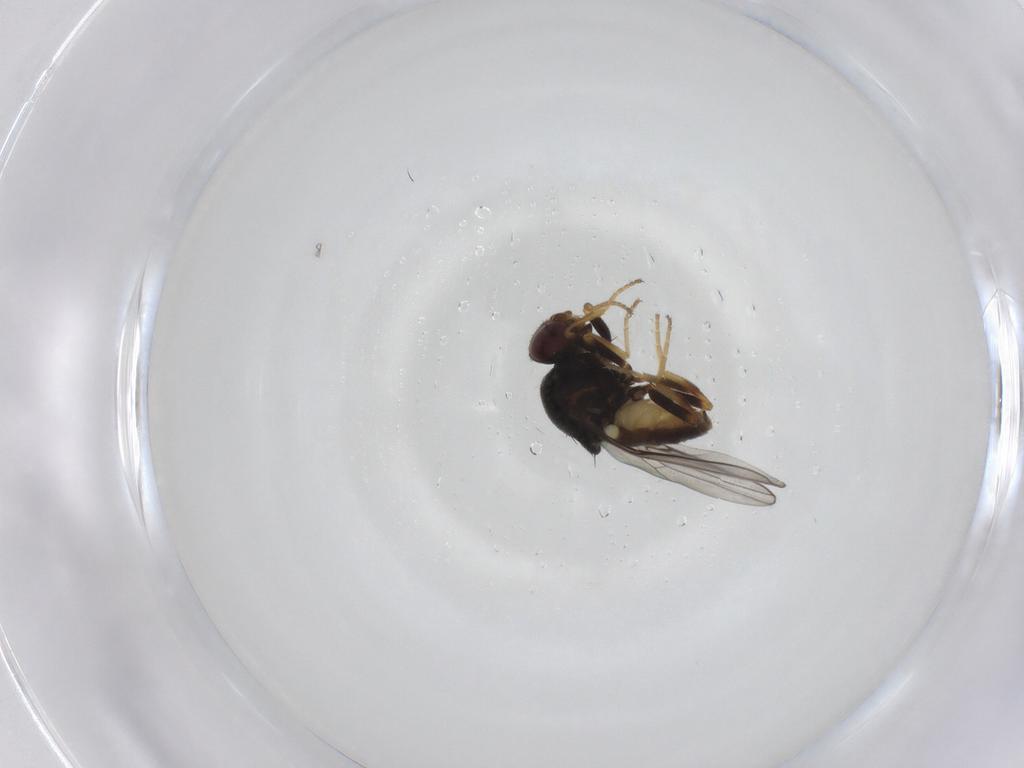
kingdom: Animalia
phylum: Arthropoda
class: Insecta
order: Diptera
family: Chloropidae
